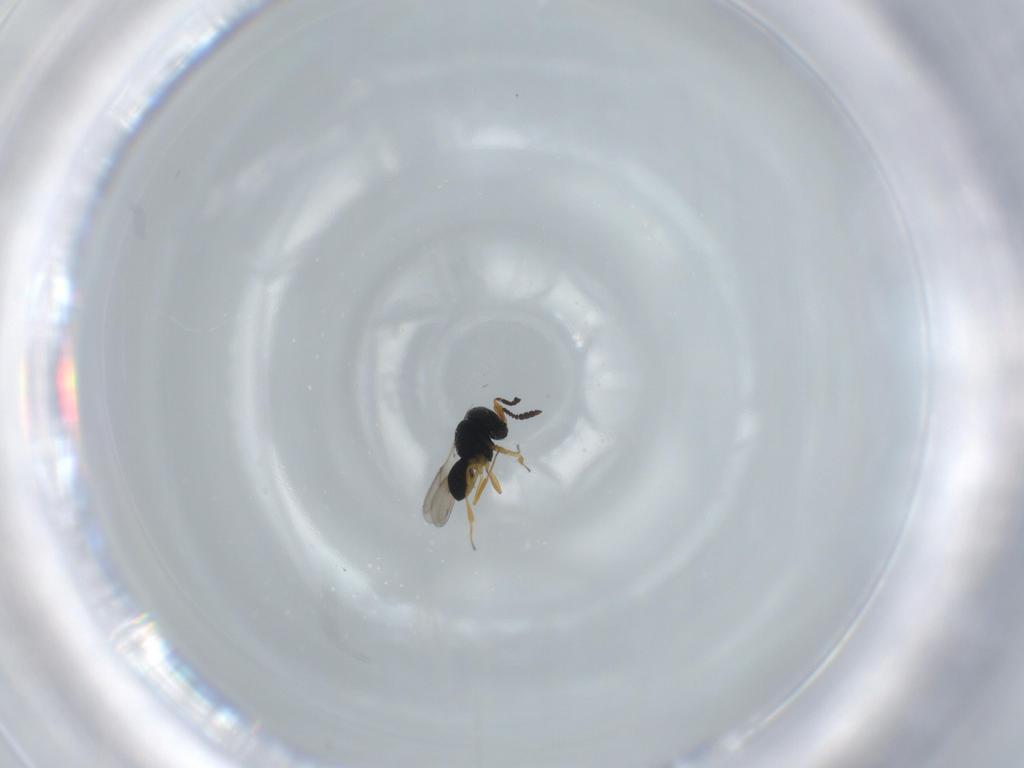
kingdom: Animalia
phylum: Arthropoda
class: Insecta
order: Hymenoptera
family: Scelionidae
